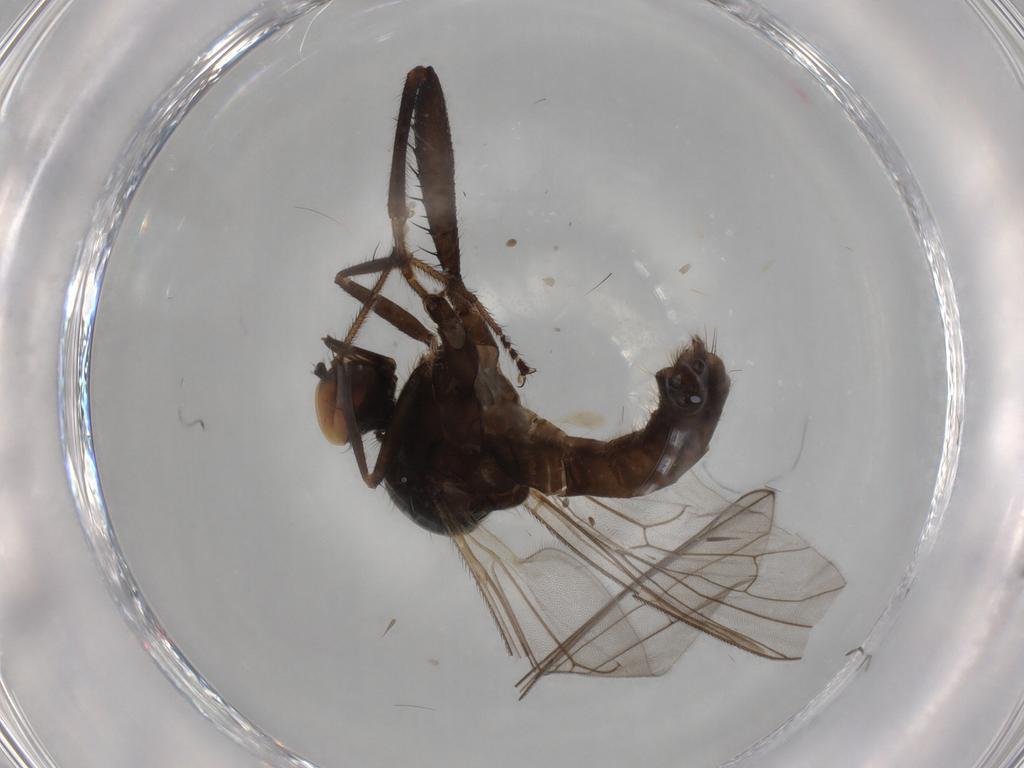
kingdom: Animalia
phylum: Arthropoda
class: Insecta
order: Diptera
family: Hybotidae
